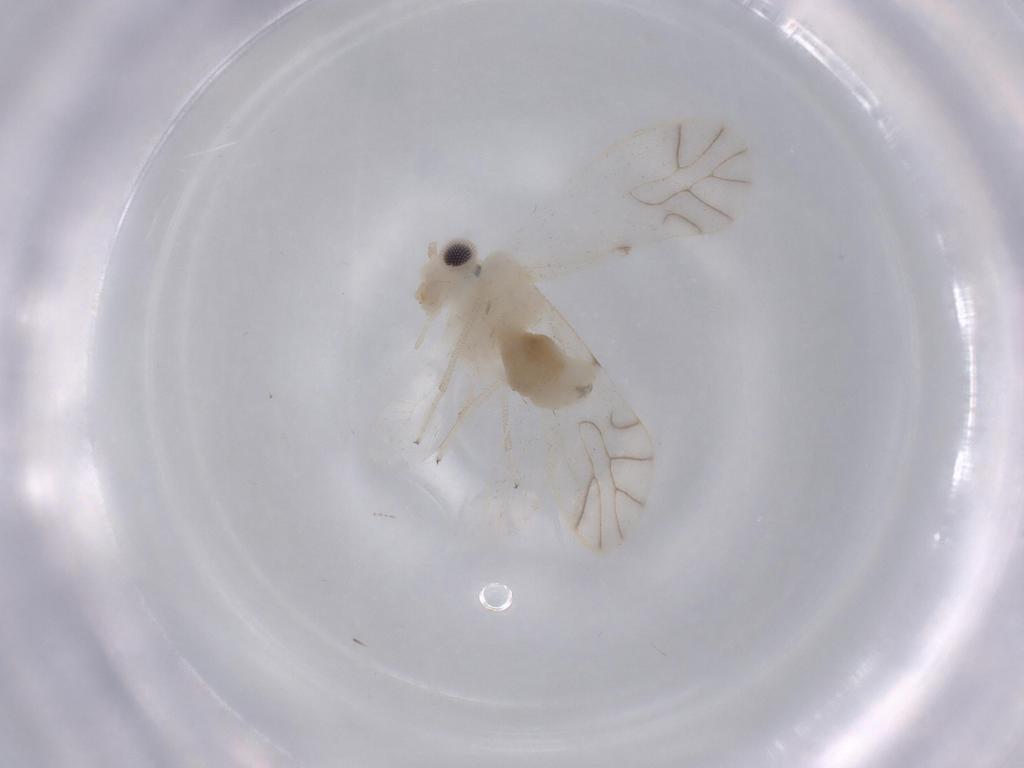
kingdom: Animalia
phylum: Arthropoda
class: Insecta
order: Psocodea
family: Caeciliusidae
